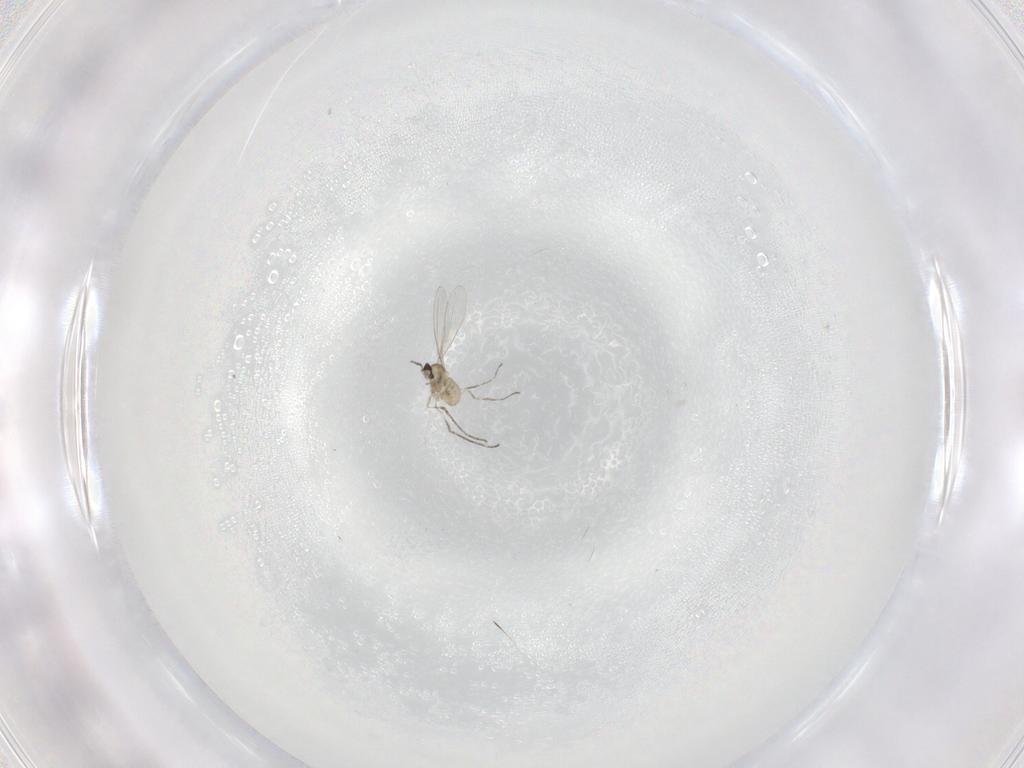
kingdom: Animalia
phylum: Arthropoda
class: Insecta
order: Diptera
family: Cecidomyiidae
